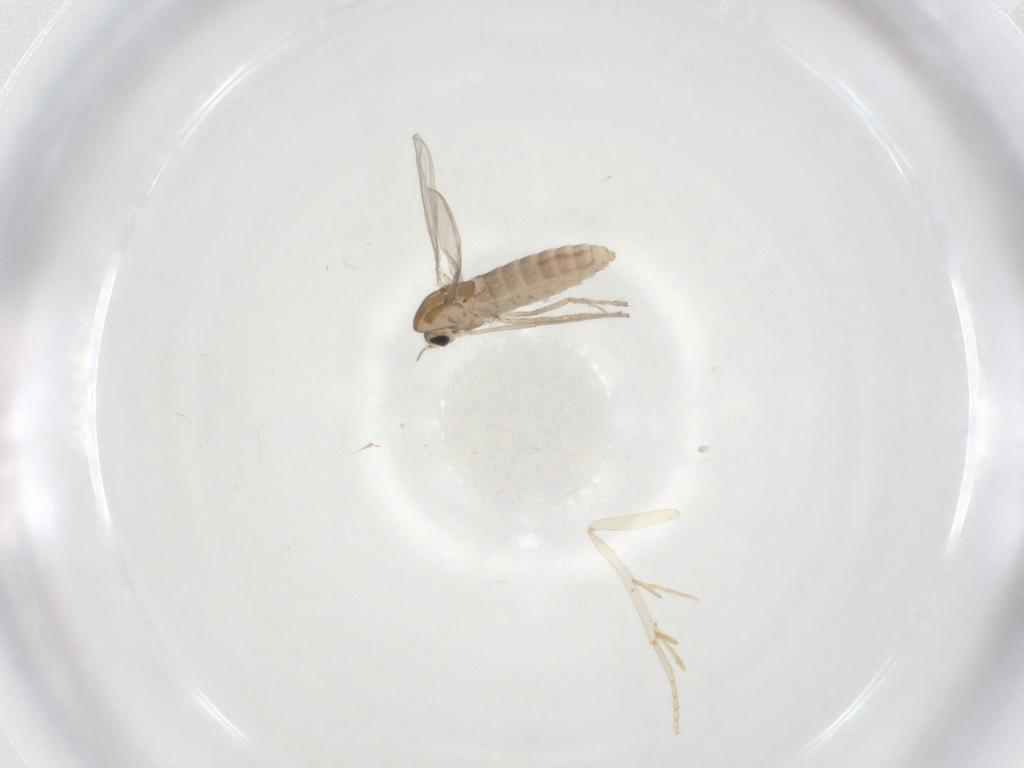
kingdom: Animalia
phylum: Arthropoda
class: Insecta
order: Diptera
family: Chironomidae
